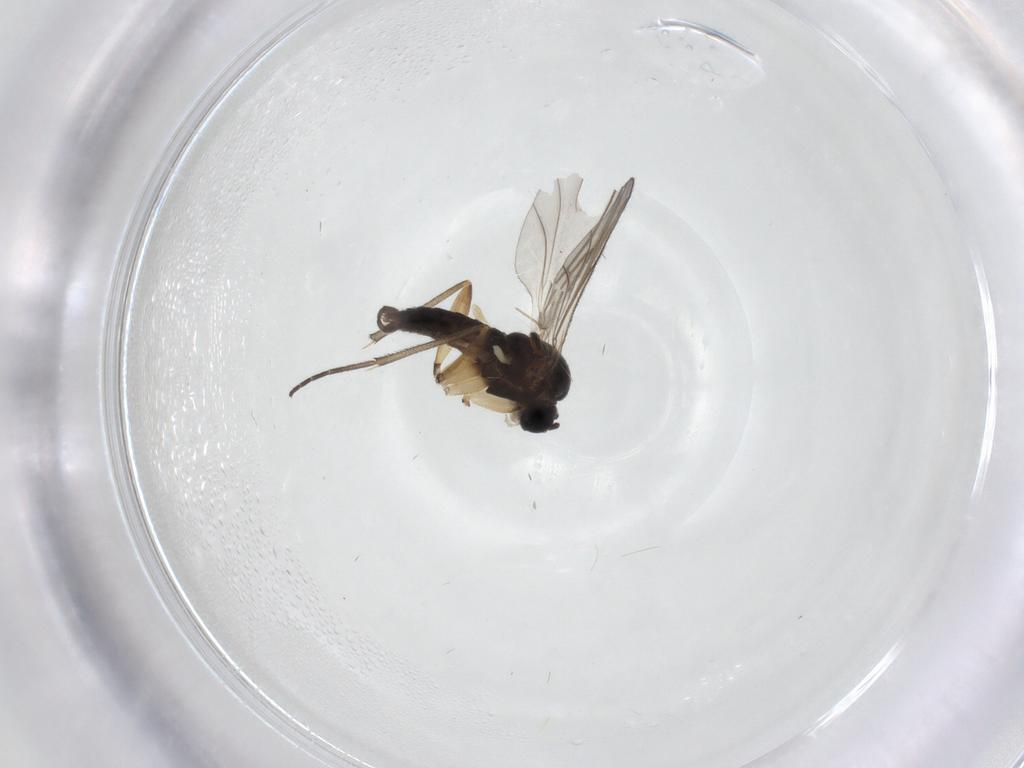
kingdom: Animalia
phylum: Arthropoda
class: Insecta
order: Diptera
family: Sciaridae
